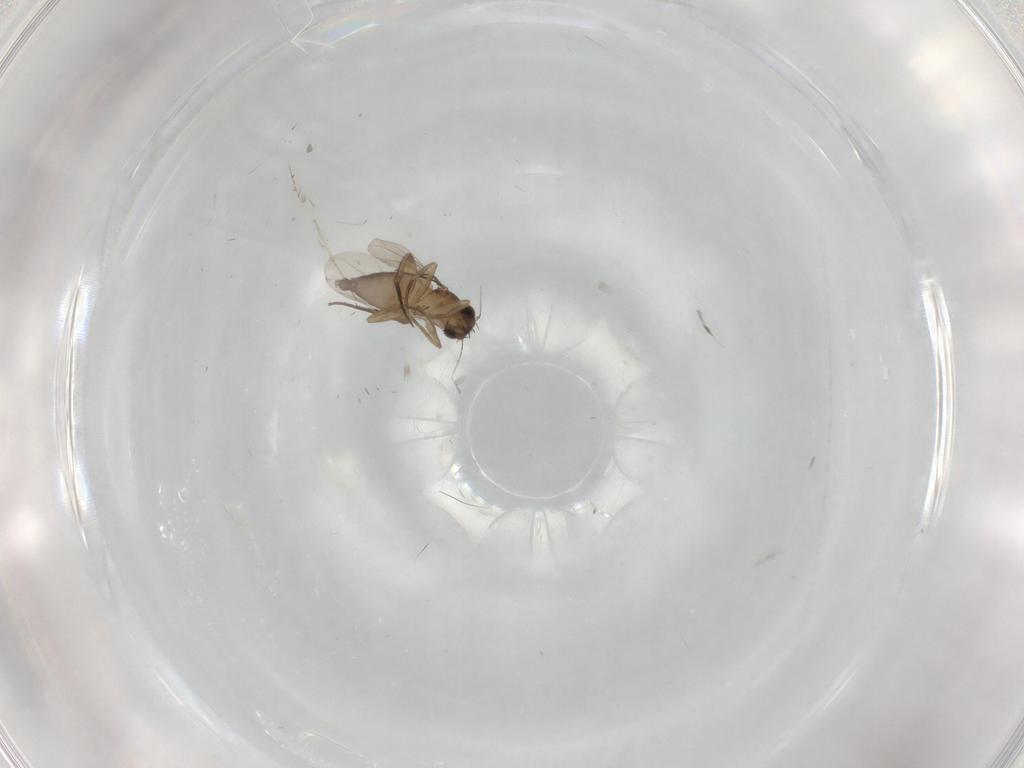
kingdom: Animalia
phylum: Arthropoda
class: Insecta
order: Diptera
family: Phoridae
